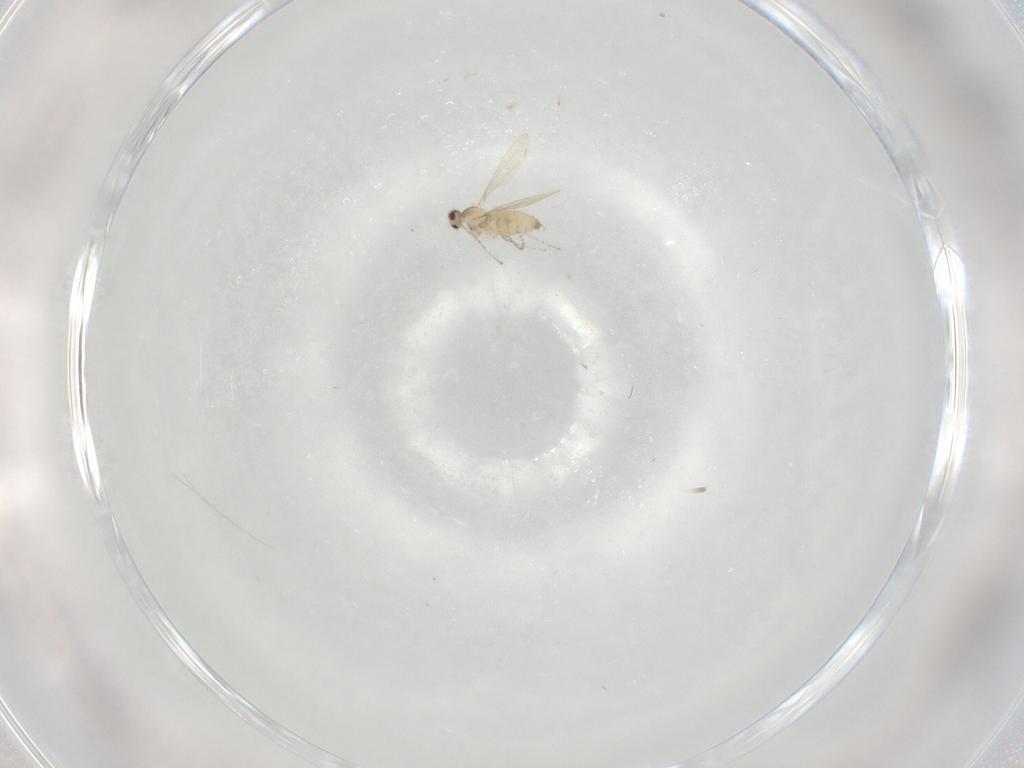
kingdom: Animalia
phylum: Arthropoda
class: Insecta
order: Diptera
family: Cecidomyiidae
